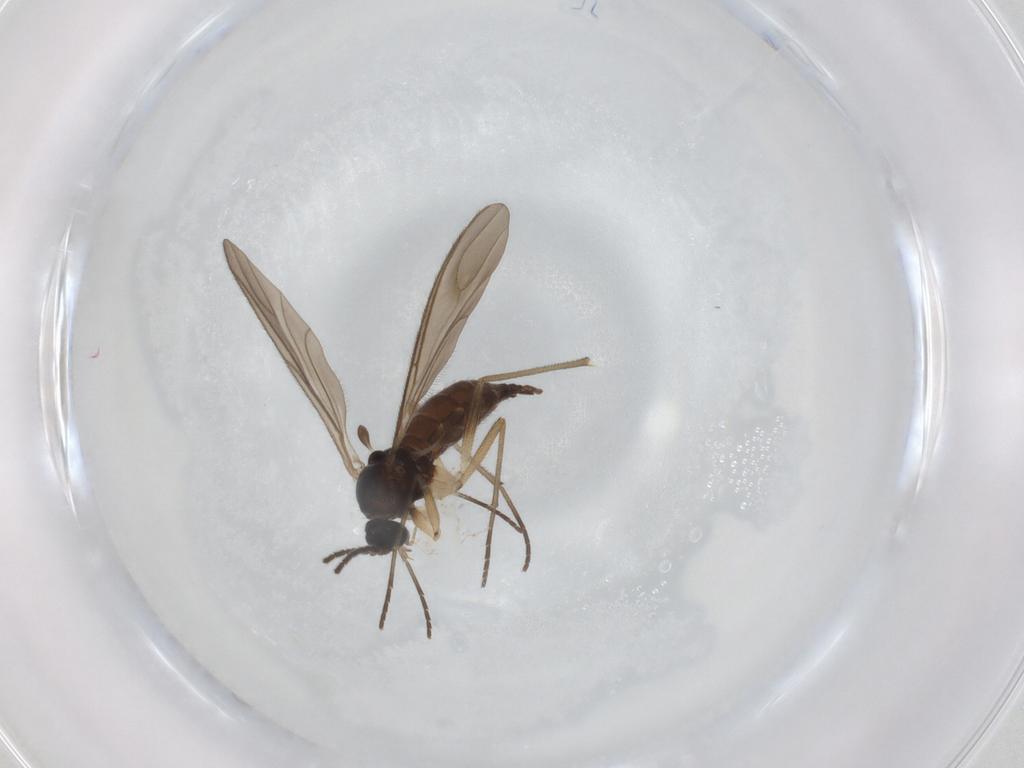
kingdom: Animalia
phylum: Arthropoda
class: Insecta
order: Diptera
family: Sciaridae
